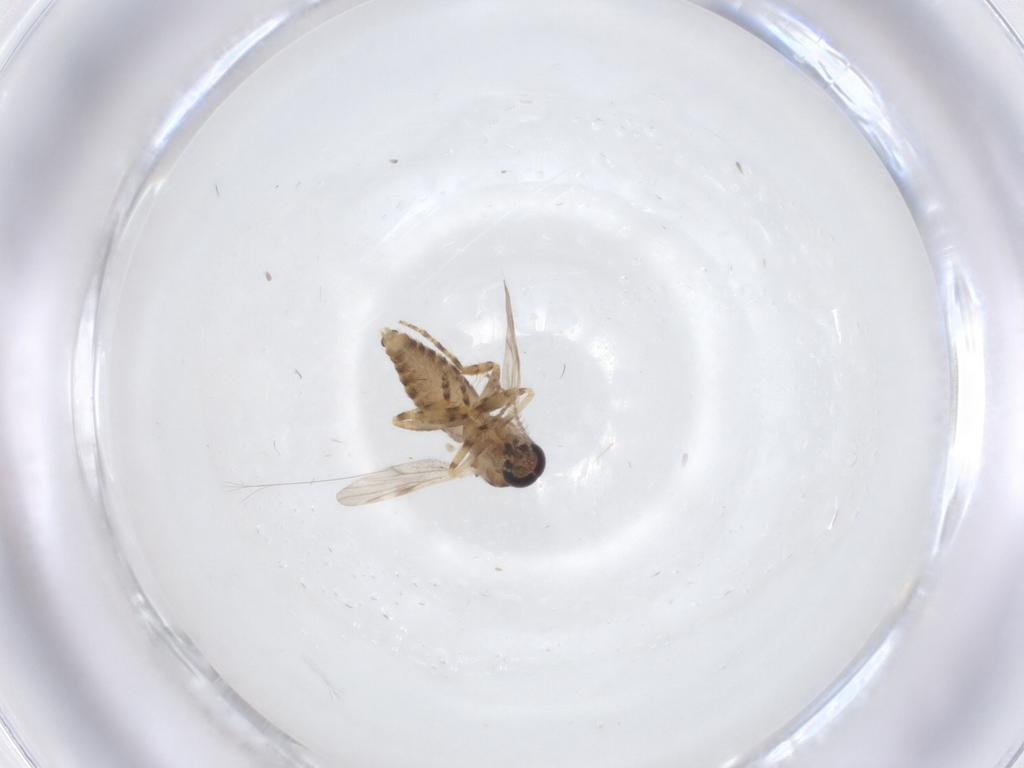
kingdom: Animalia
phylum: Arthropoda
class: Insecta
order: Diptera
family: Ceratopogonidae
